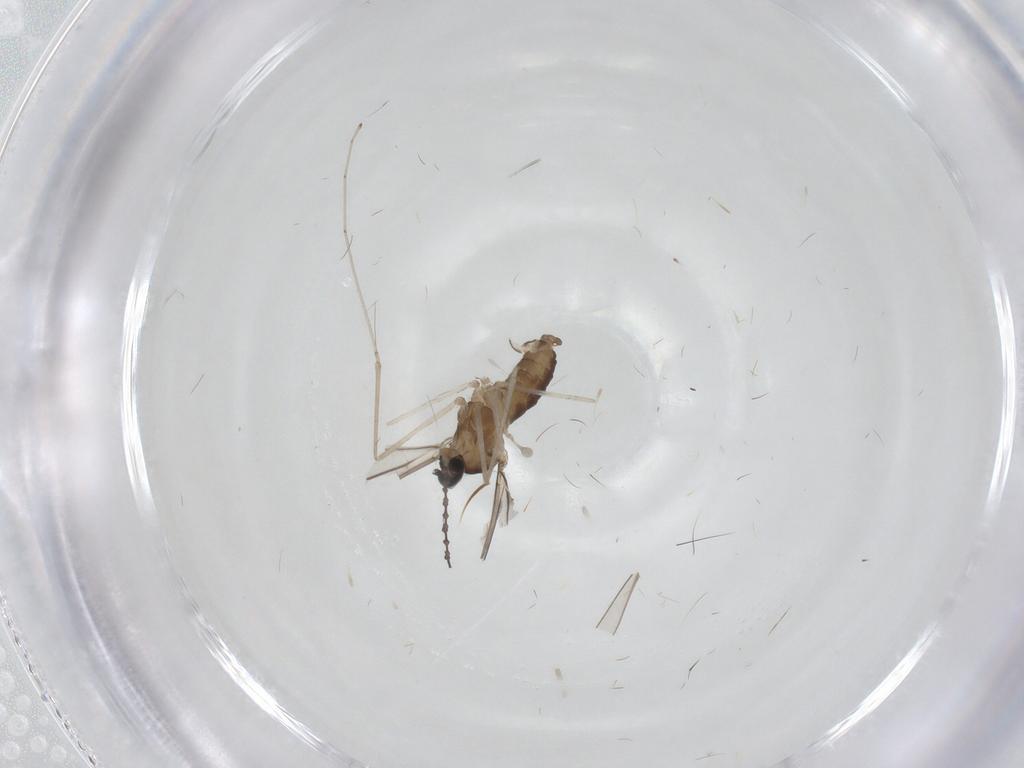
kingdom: Animalia
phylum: Arthropoda
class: Insecta
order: Diptera
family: Cecidomyiidae
